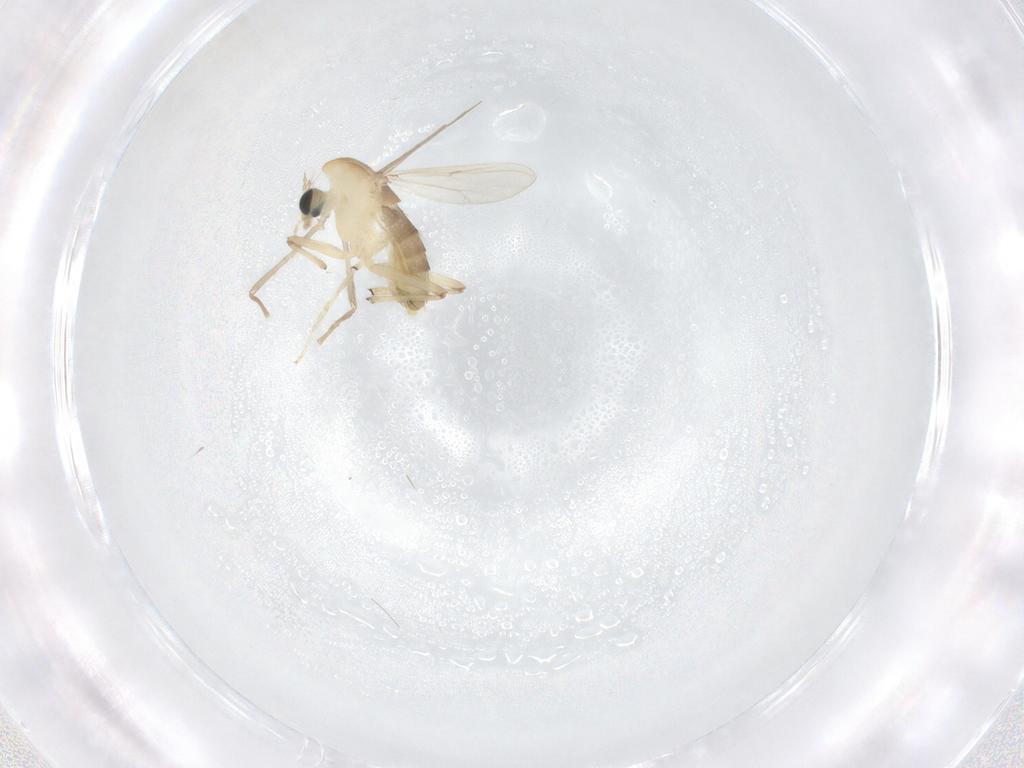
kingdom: Animalia
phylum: Arthropoda
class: Insecta
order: Diptera
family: Chironomidae
